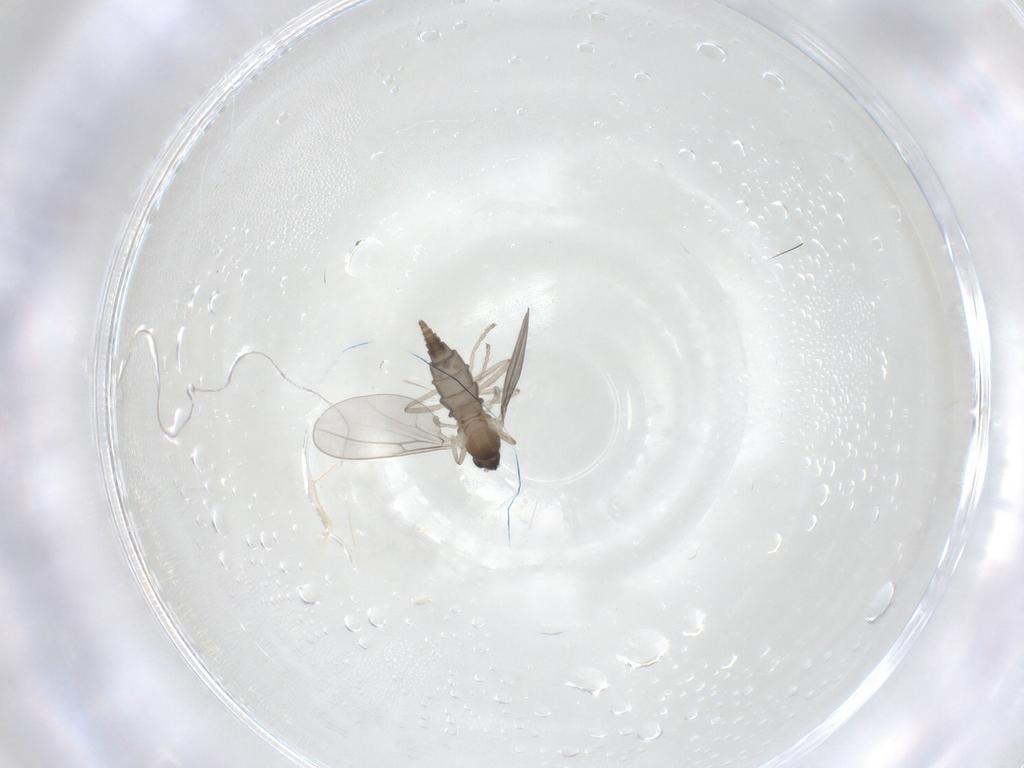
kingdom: Animalia
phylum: Arthropoda
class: Insecta
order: Diptera
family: Cecidomyiidae
